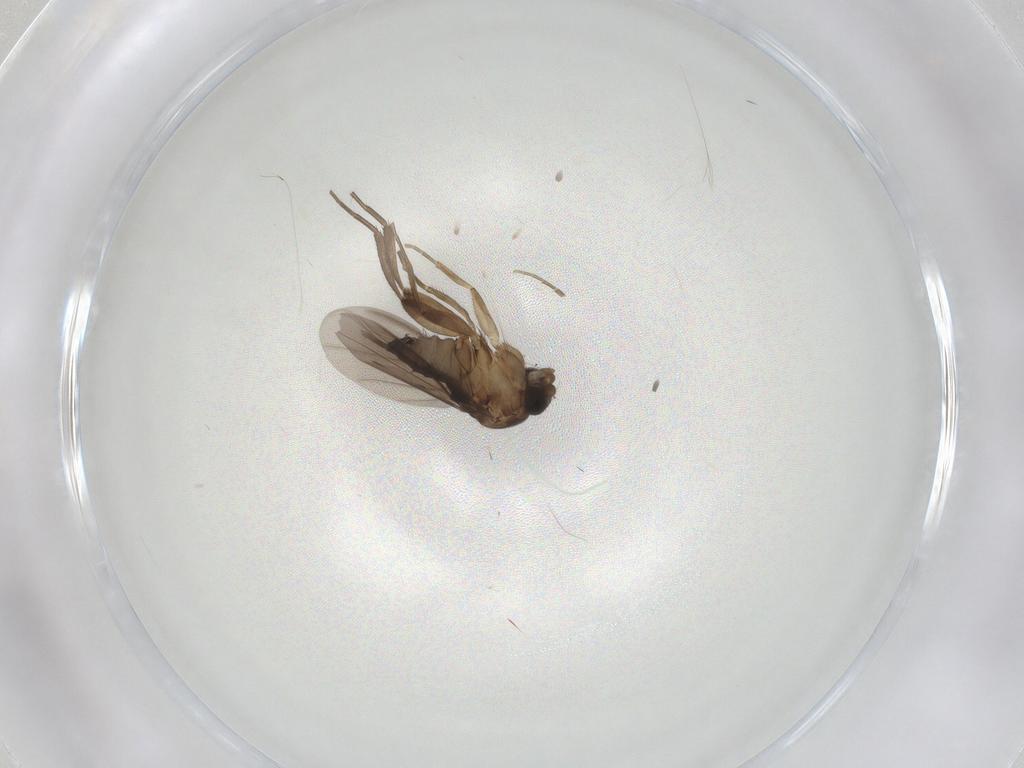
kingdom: Animalia
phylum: Arthropoda
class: Insecta
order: Diptera
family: Phoridae
